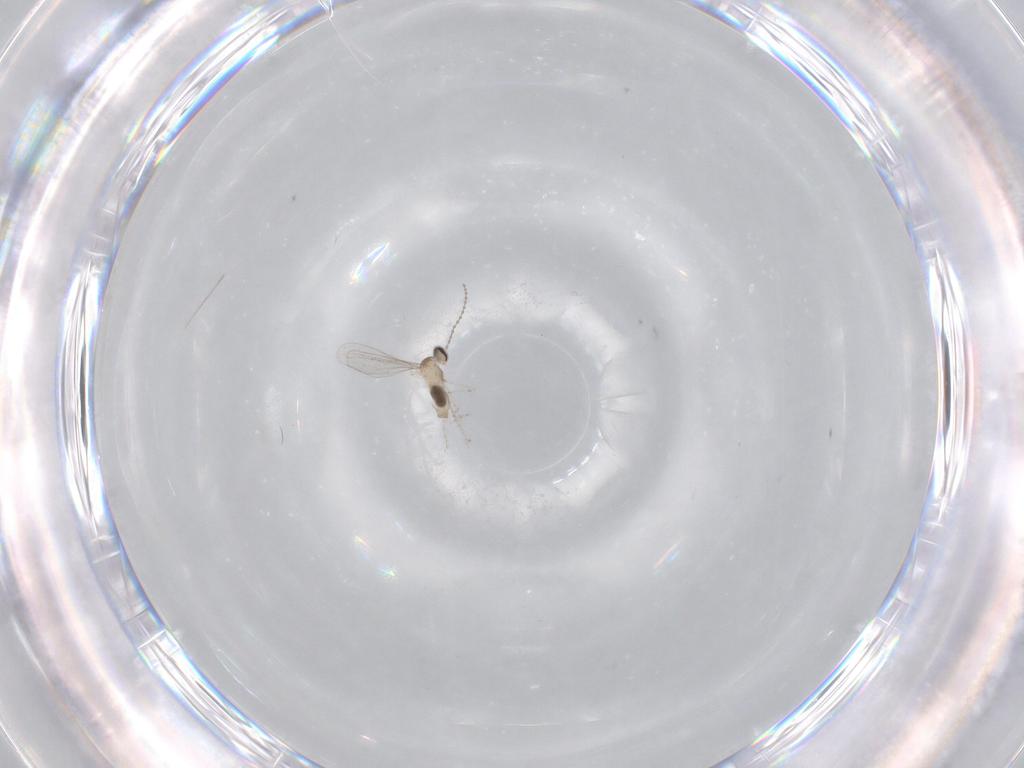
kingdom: Animalia
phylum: Arthropoda
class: Insecta
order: Diptera
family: Cecidomyiidae
